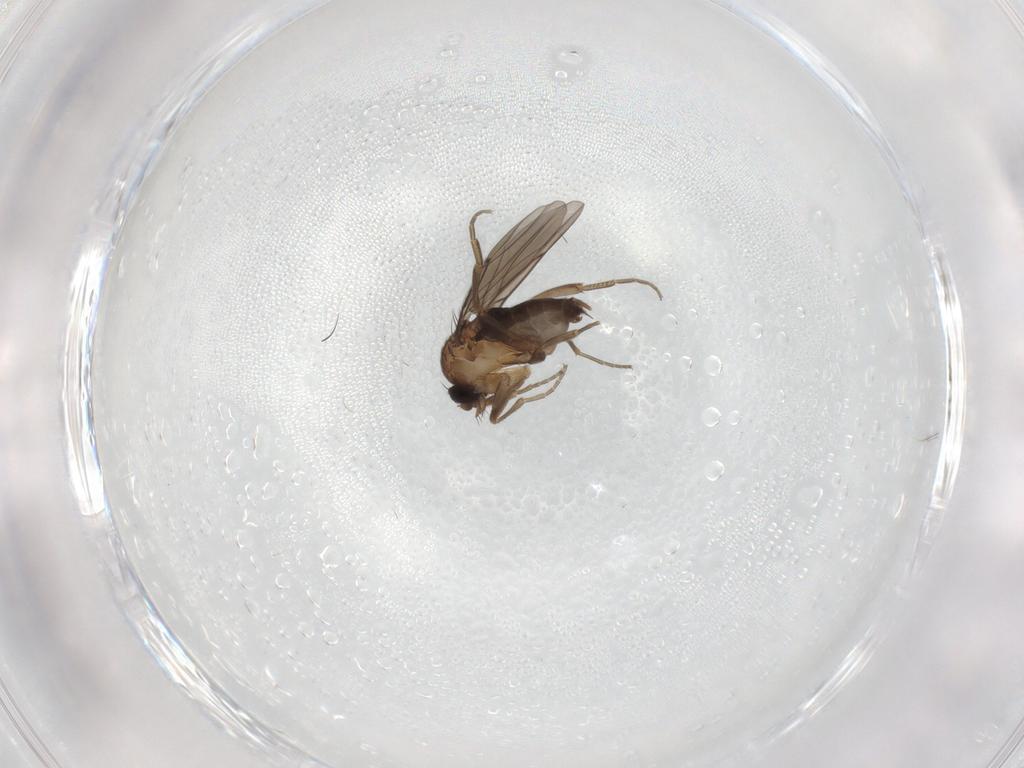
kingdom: Animalia
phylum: Arthropoda
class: Insecta
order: Diptera
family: Phoridae
